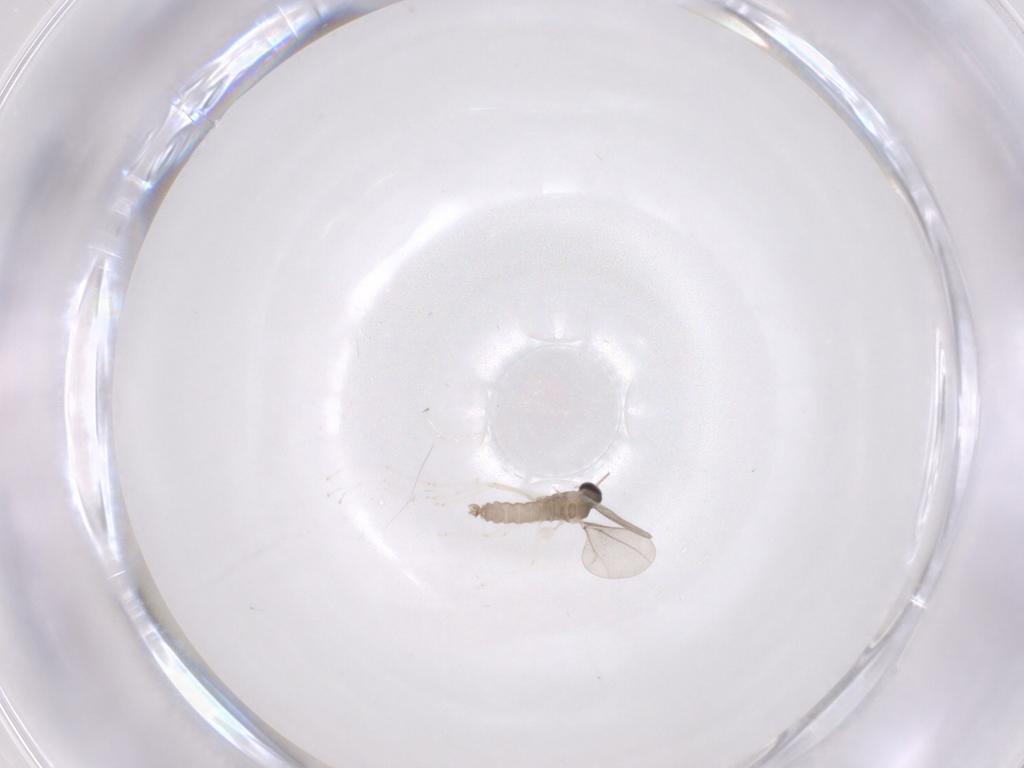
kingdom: Animalia
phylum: Arthropoda
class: Insecta
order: Diptera
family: Cecidomyiidae
